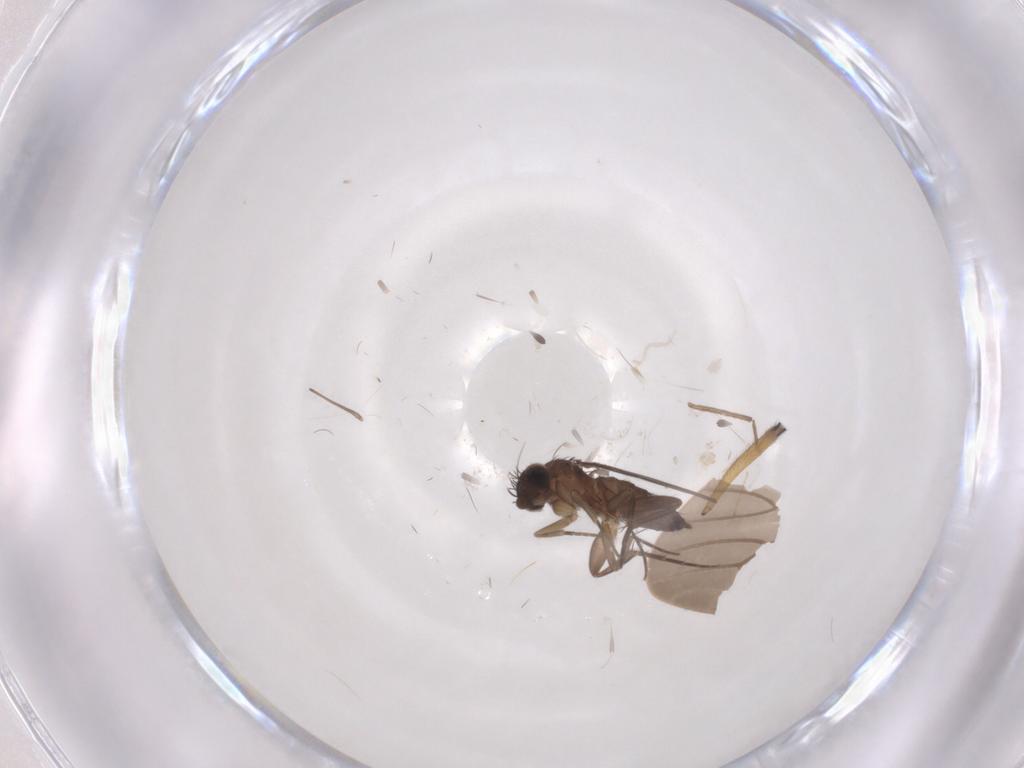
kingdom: Animalia
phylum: Arthropoda
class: Insecta
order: Diptera
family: Phoridae
